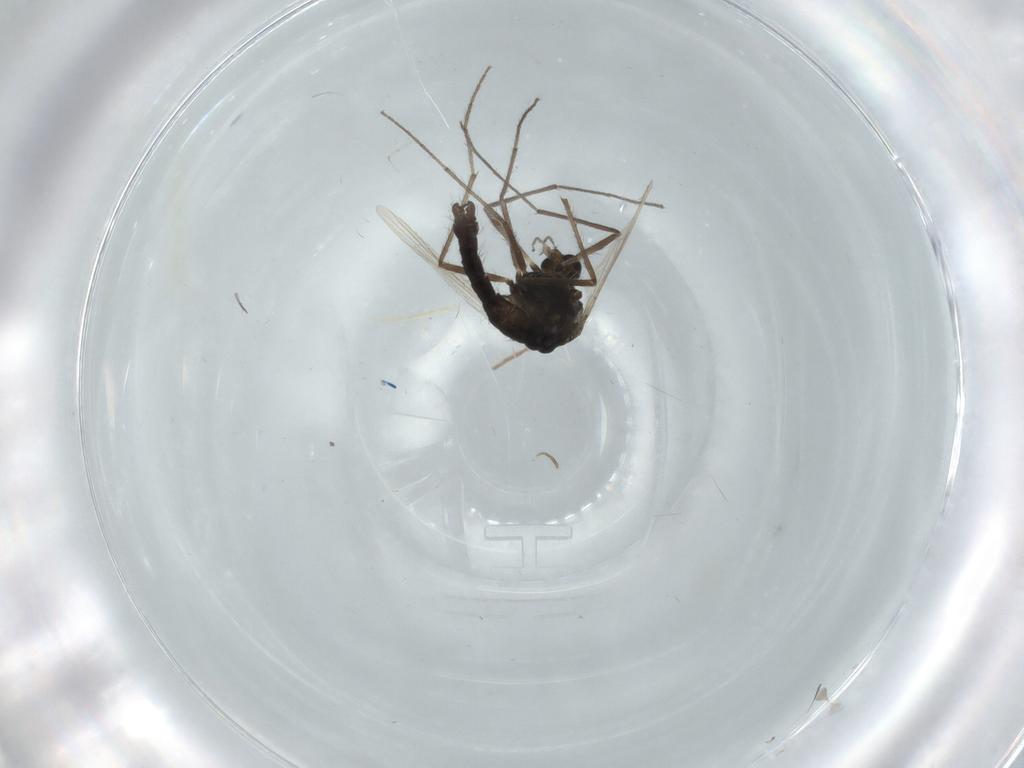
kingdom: Animalia
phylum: Arthropoda
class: Insecta
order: Diptera
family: Chironomidae
